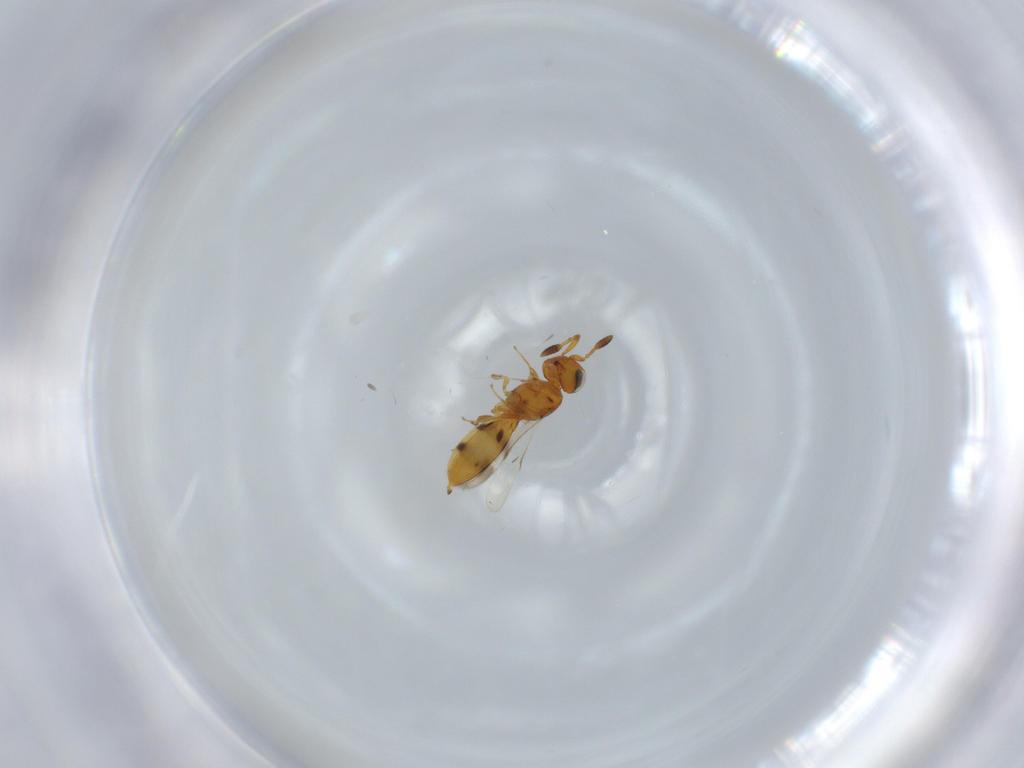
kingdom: Animalia
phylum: Arthropoda
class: Insecta
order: Hymenoptera
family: Scelionidae
